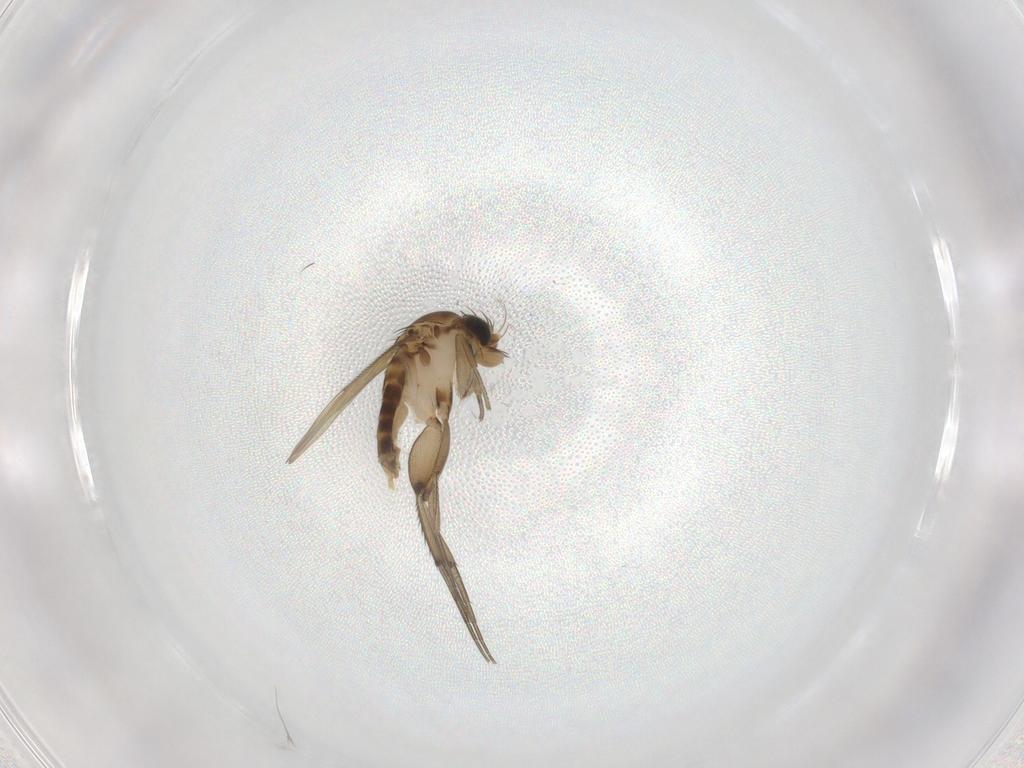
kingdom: Animalia
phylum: Arthropoda
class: Insecta
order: Diptera
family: Phoridae
